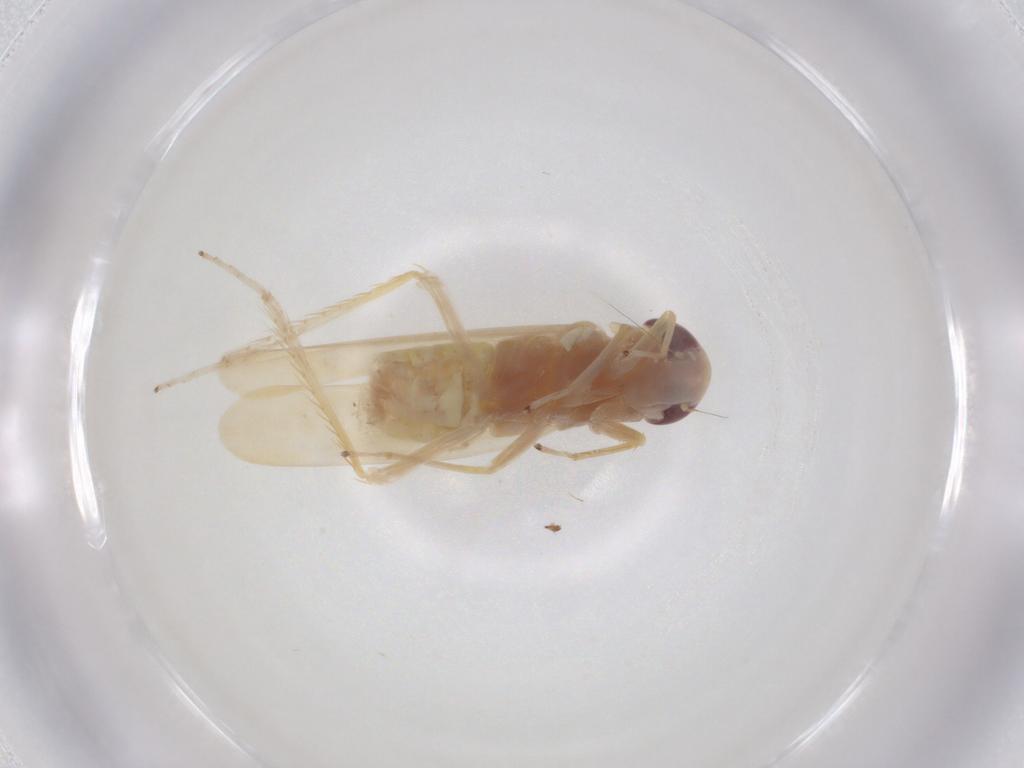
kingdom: Animalia
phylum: Arthropoda
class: Insecta
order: Hemiptera
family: Cicadellidae
